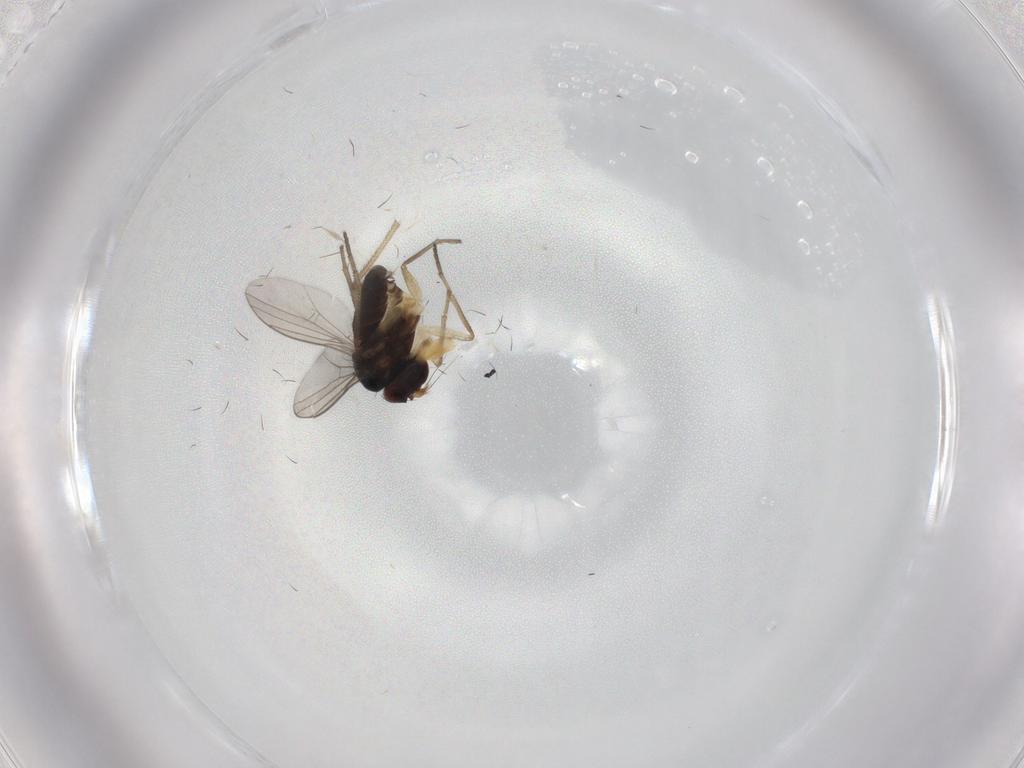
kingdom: Animalia
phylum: Arthropoda
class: Insecta
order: Diptera
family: Dolichopodidae
